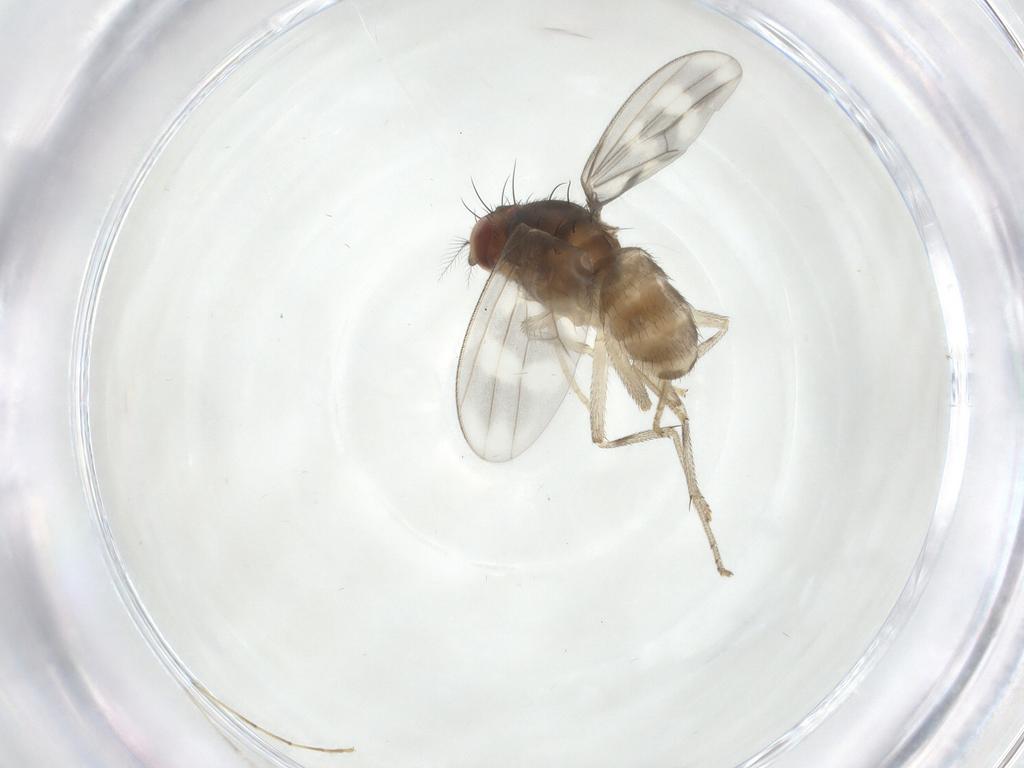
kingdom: Animalia
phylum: Arthropoda
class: Insecta
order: Diptera
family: Lauxaniidae
